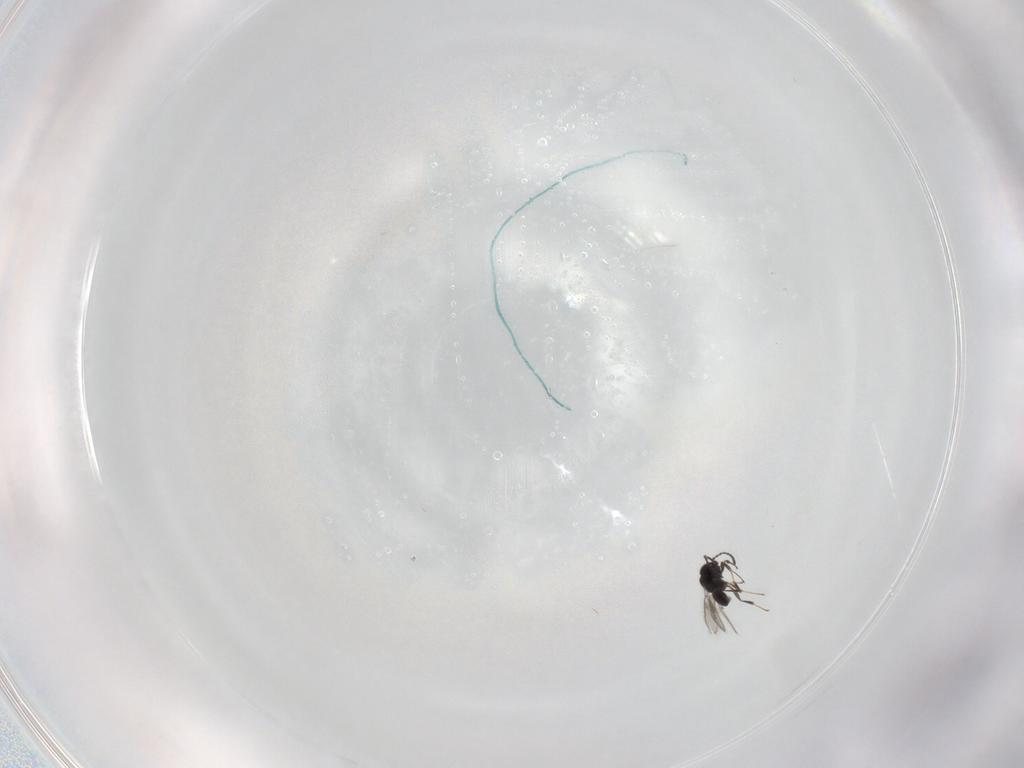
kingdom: Animalia
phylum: Arthropoda
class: Insecta
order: Hymenoptera
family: Scelionidae
